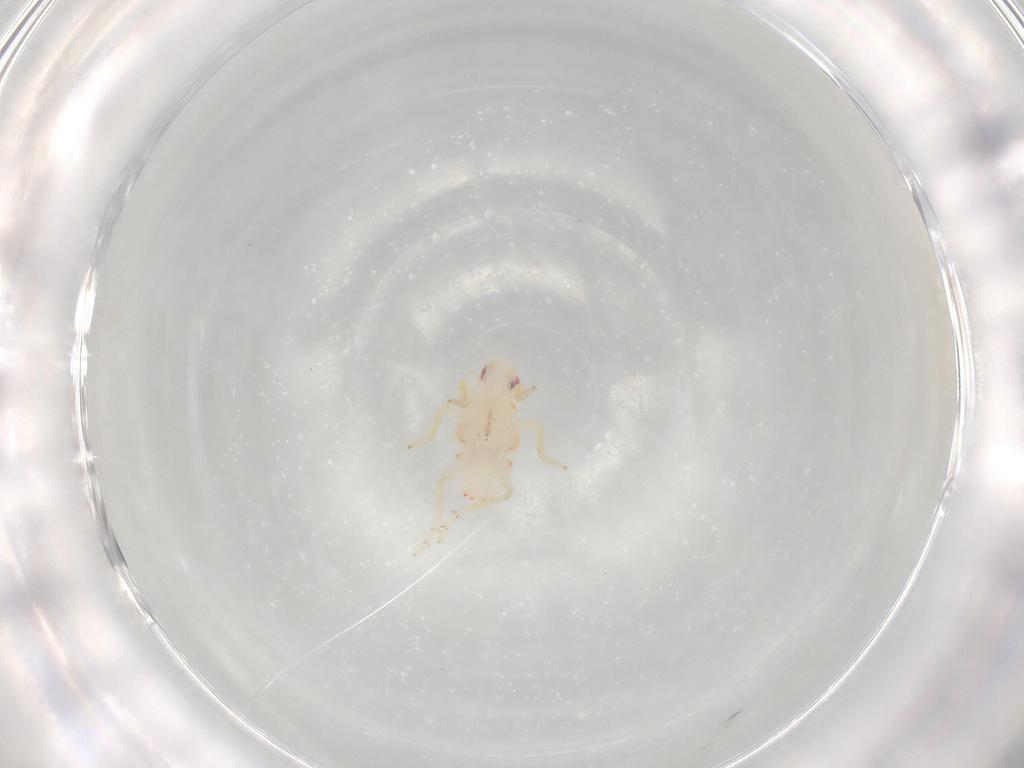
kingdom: Animalia
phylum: Arthropoda
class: Insecta
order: Hemiptera
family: Tropiduchidae
